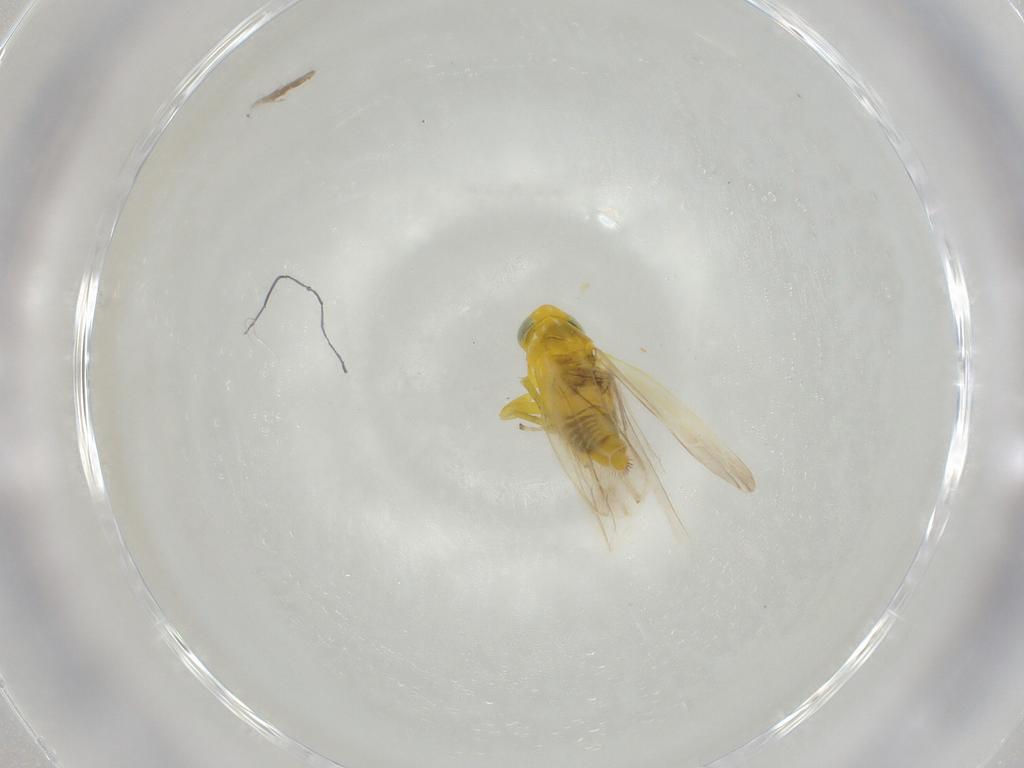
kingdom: Animalia
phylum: Arthropoda
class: Insecta
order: Hemiptera
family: Cicadellidae
